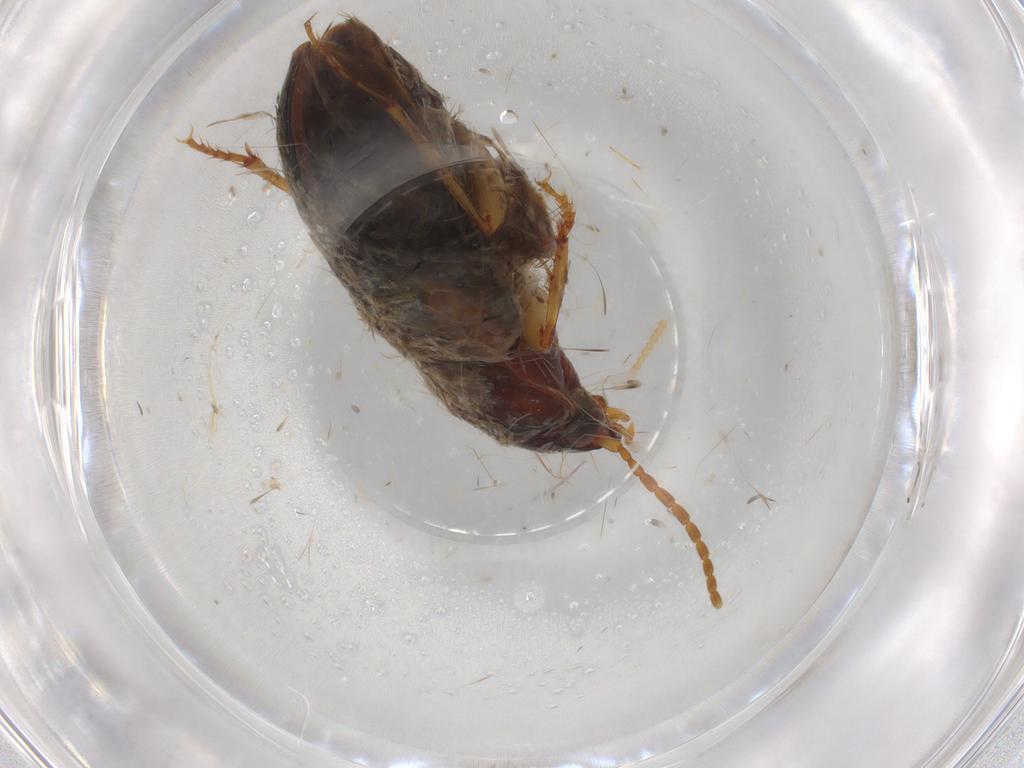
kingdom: Animalia
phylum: Arthropoda
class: Insecta
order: Coleoptera
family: Carabidae
